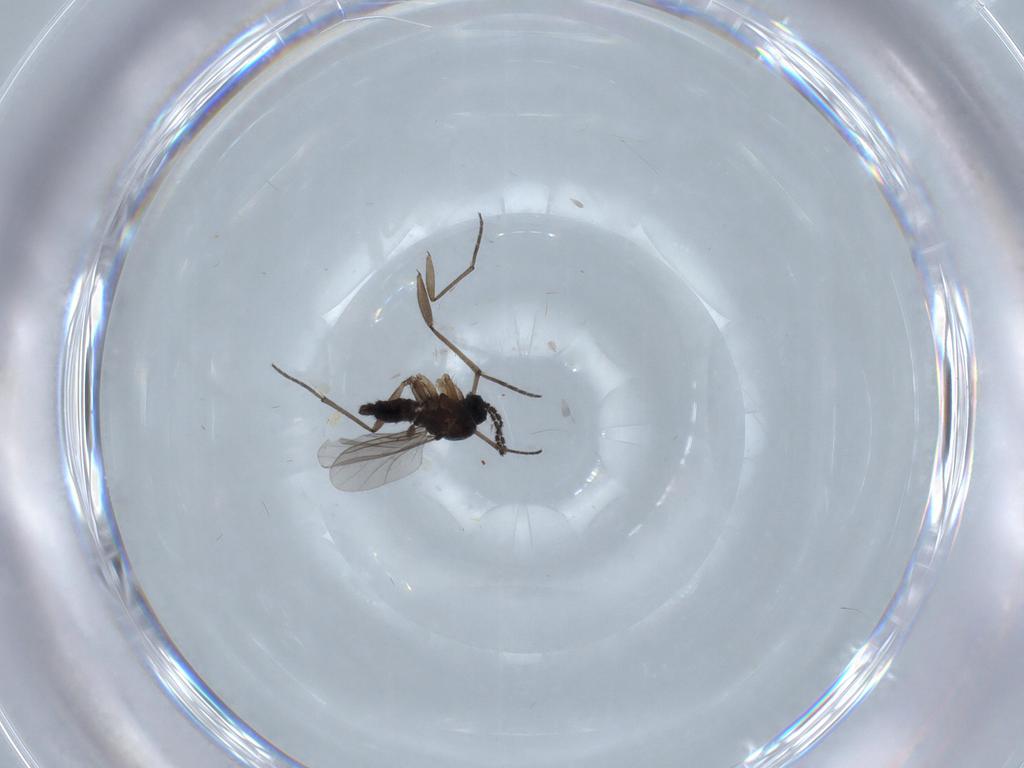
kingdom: Animalia
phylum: Arthropoda
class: Insecta
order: Diptera
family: Sciaridae
